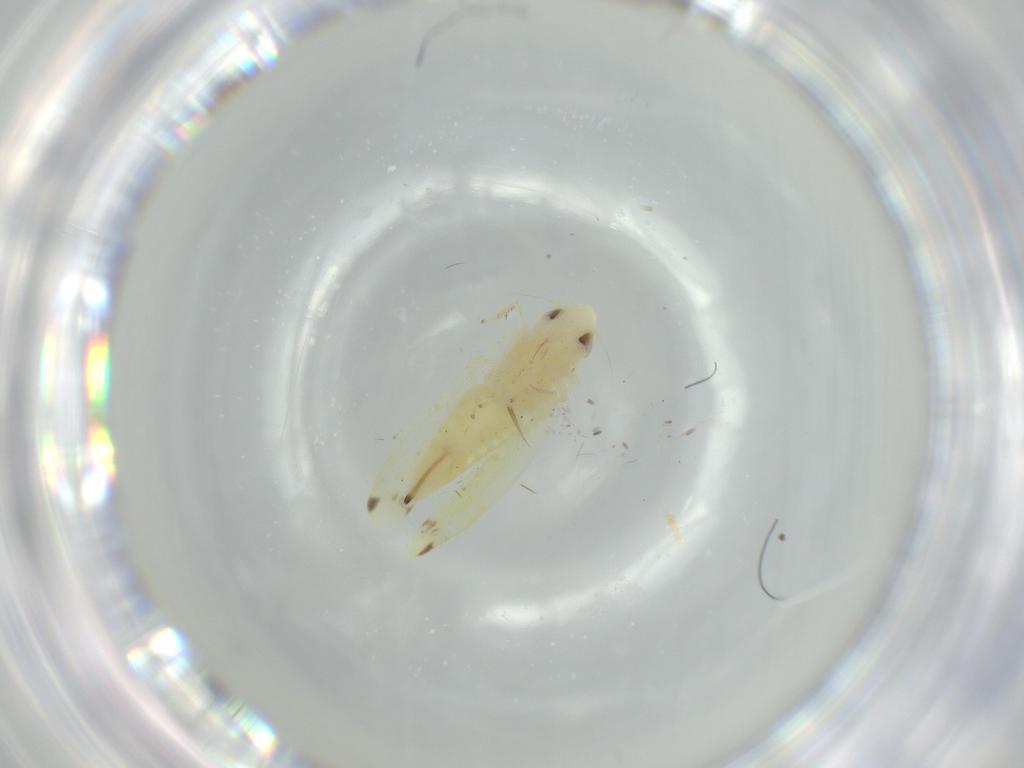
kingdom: Animalia
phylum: Arthropoda
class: Insecta
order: Hemiptera
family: Cicadellidae
